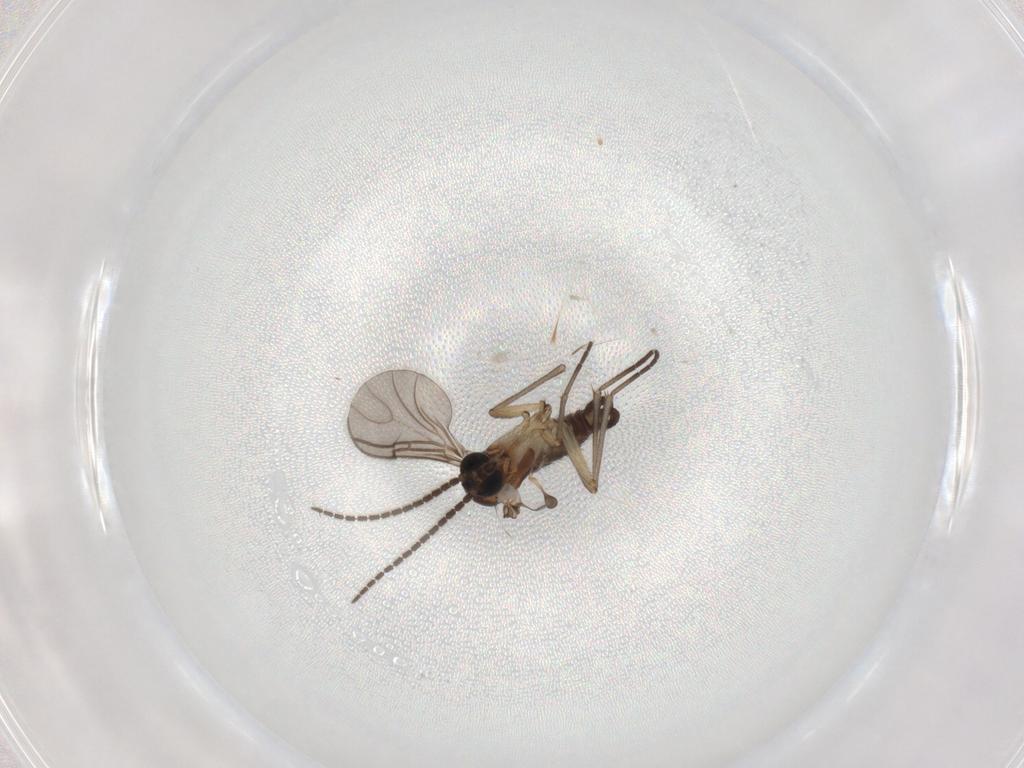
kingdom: Animalia
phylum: Arthropoda
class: Insecta
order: Diptera
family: Sciaridae
